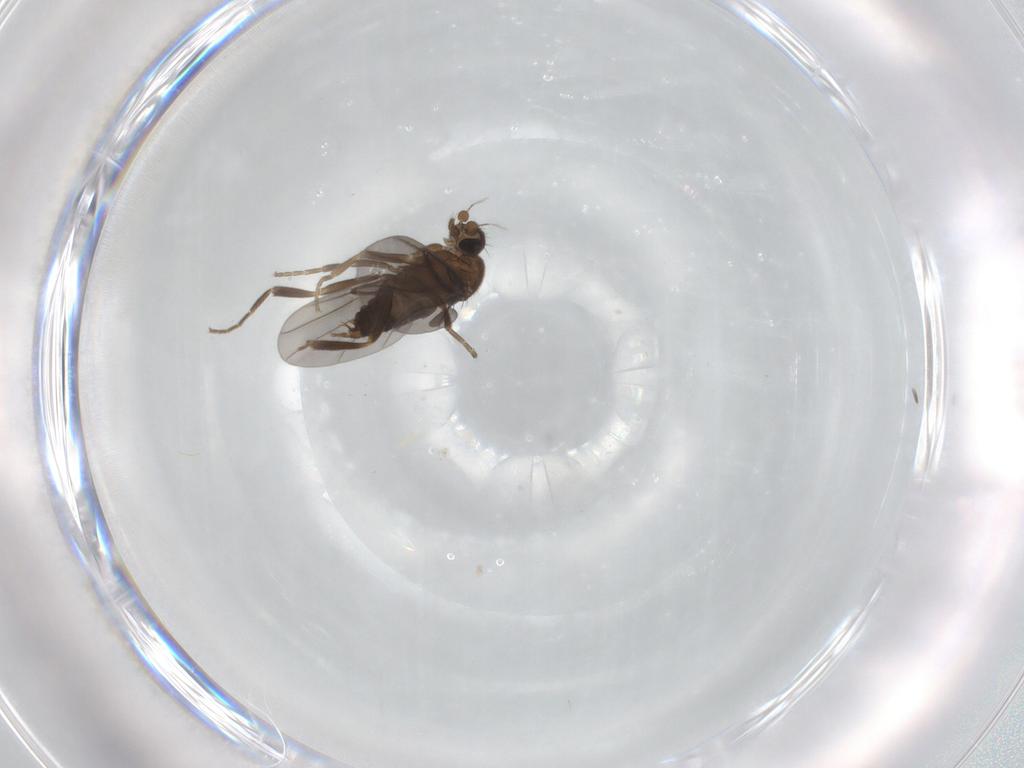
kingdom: Animalia
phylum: Arthropoda
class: Insecta
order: Diptera
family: Phoridae
